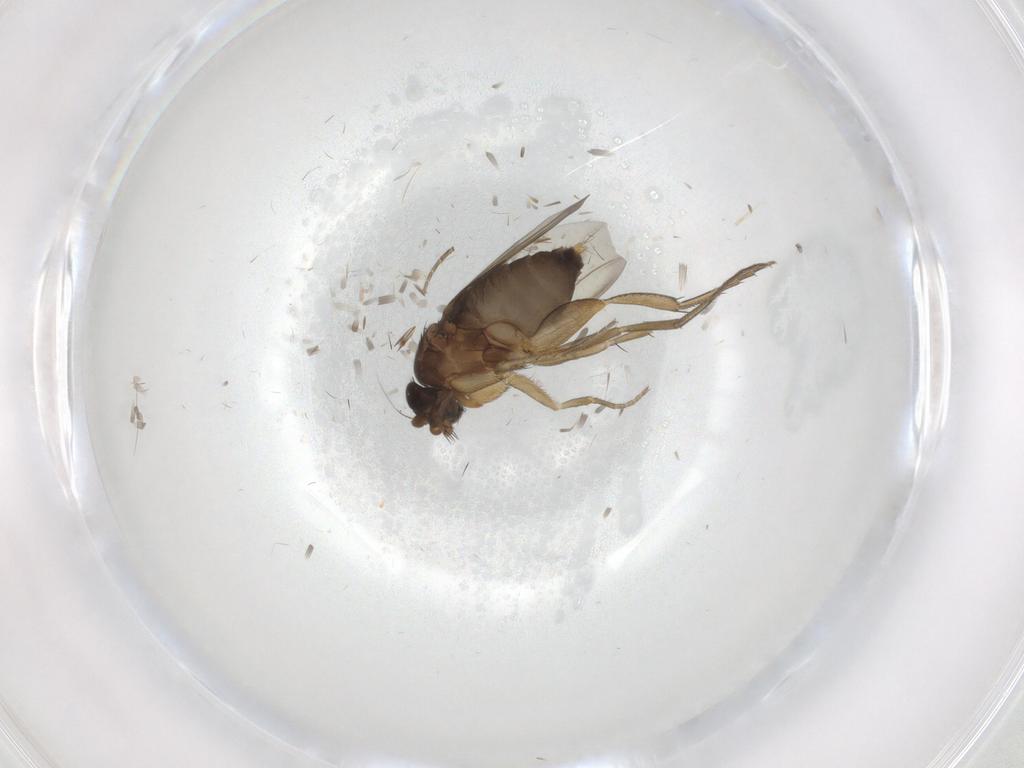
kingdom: Animalia
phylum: Arthropoda
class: Insecta
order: Diptera
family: Phoridae
